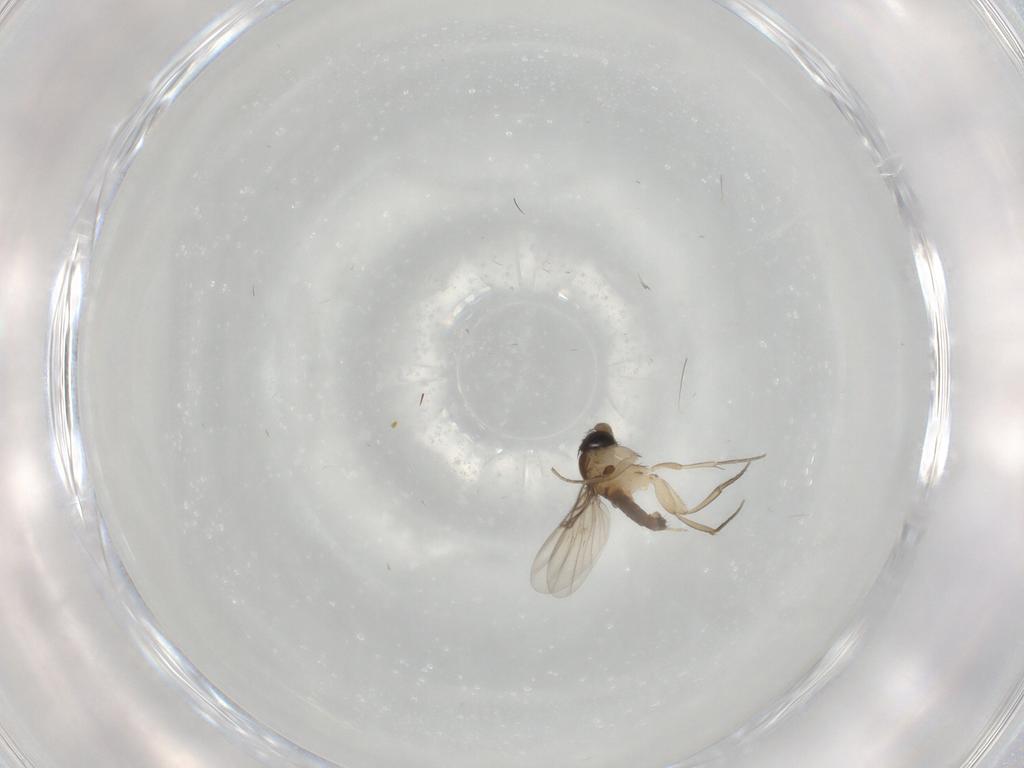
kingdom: Animalia
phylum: Arthropoda
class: Insecta
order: Diptera
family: Phoridae
